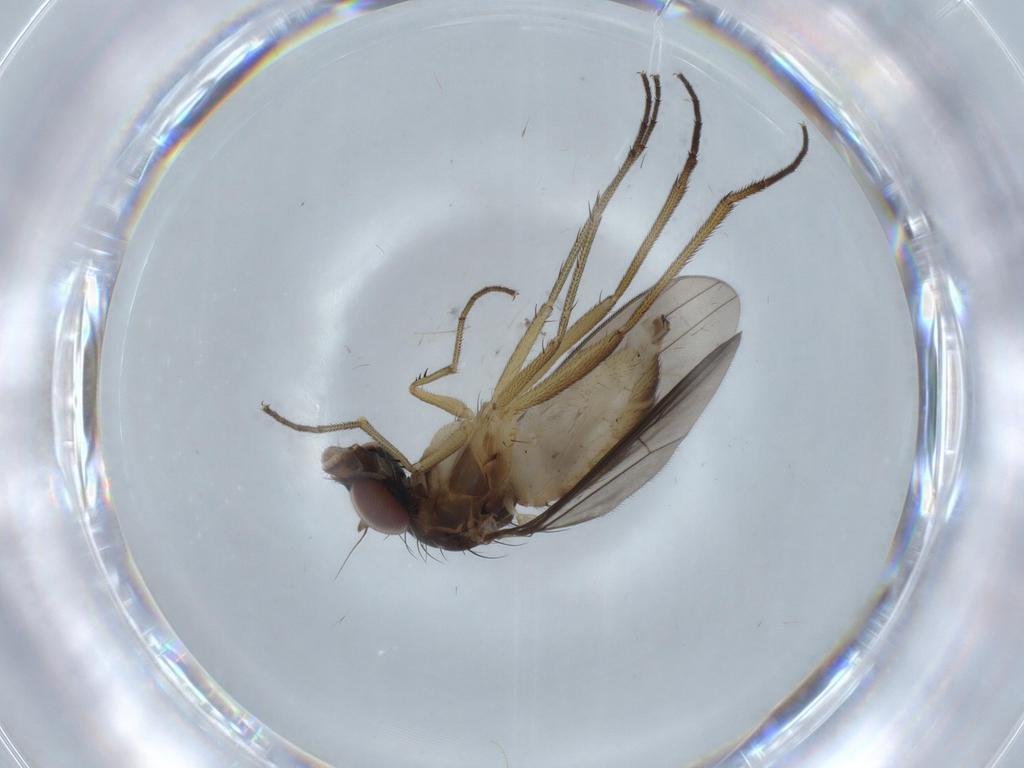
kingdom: Animalia
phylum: Arthropoda
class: Insecta
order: Diptera
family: Dolichopodidae
